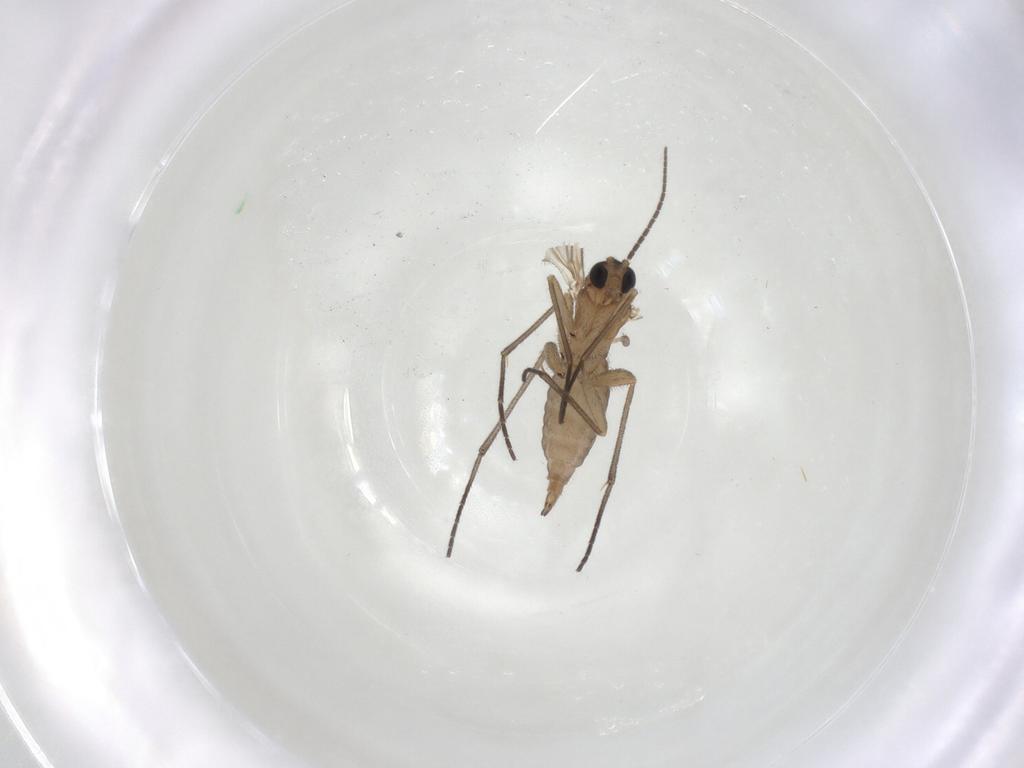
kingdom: Animalia
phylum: Arthropoda
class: Insecta
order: Diptera
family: Sciaridae
